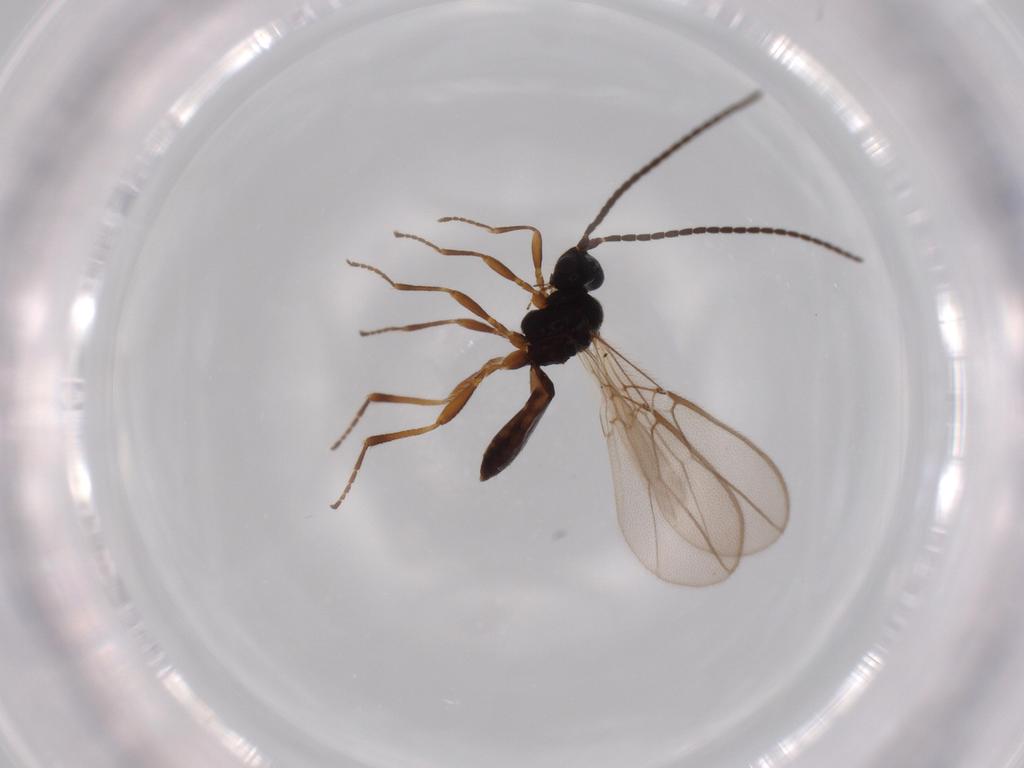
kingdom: Animalia
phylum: Arthropoda
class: Insecta
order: Hymenoptera
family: Braconidae
